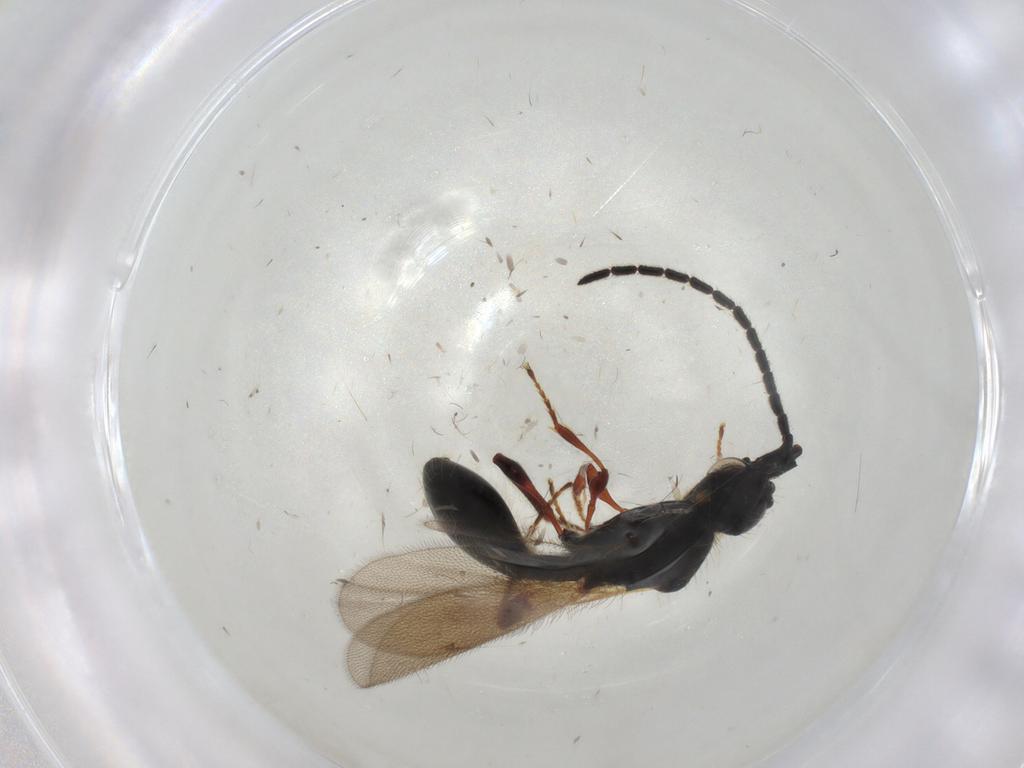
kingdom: Animalia
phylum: Arthropoda
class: Insecta
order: Hymenoptera
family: Diapriidae
